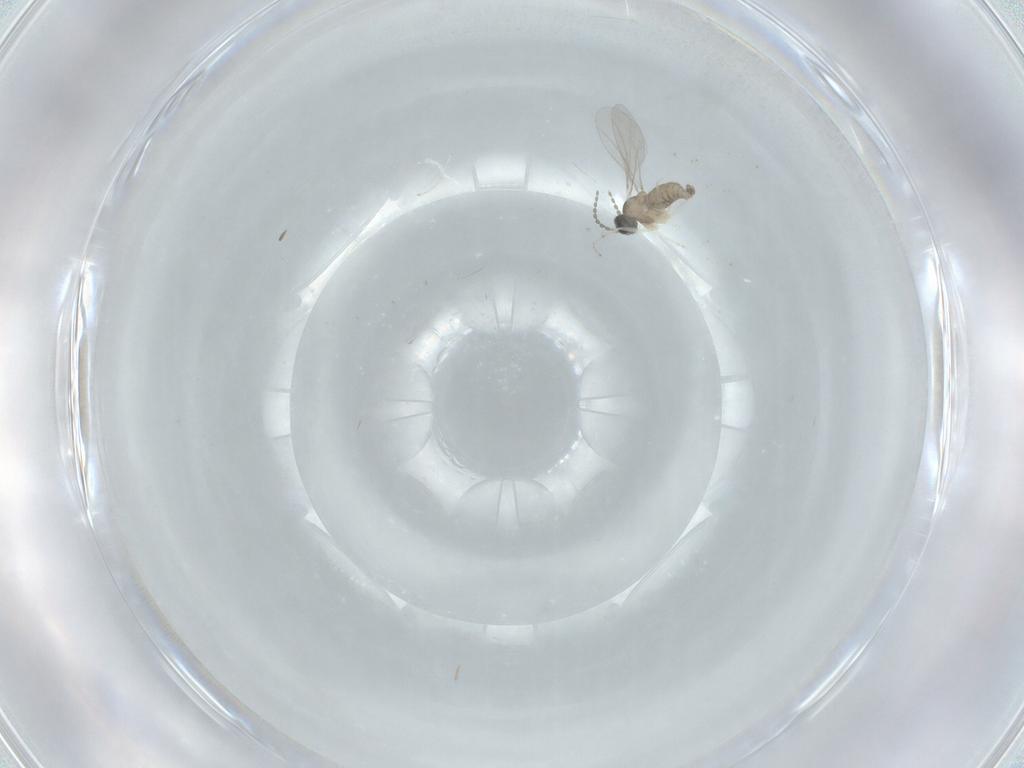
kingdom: Animalia
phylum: Arthropoda
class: Insecta
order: Diptera
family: Cecidomyiidae
